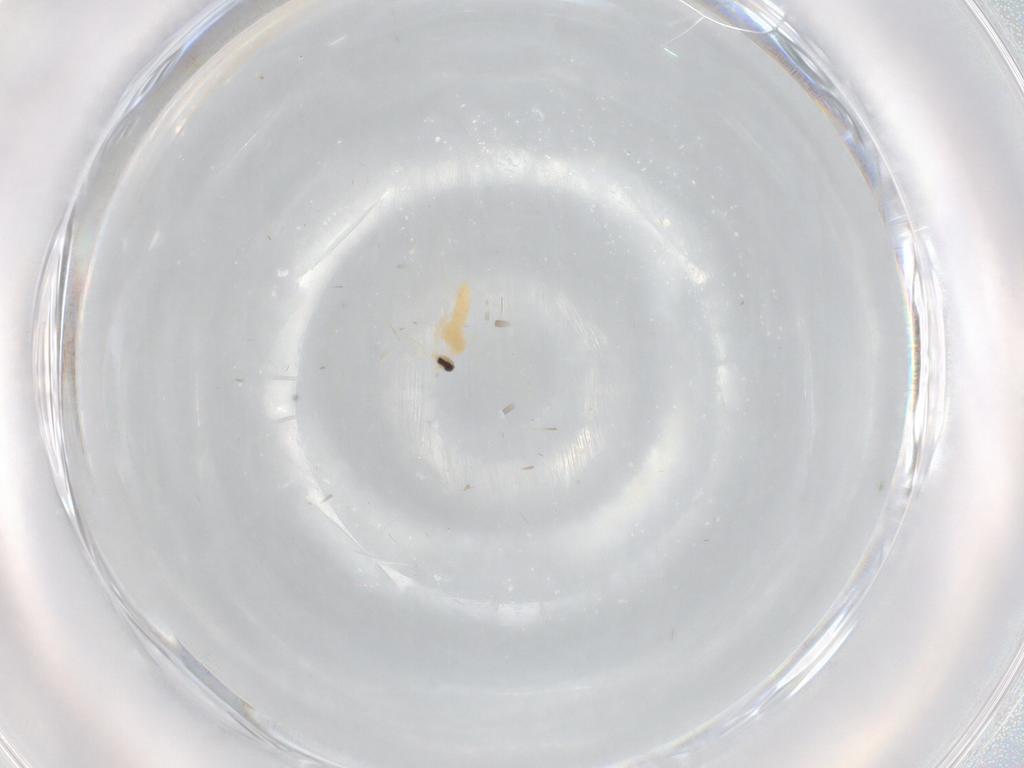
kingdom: Animalia
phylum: Arthropoda
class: Insecta
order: Diptera
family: Cecidomyiidae
